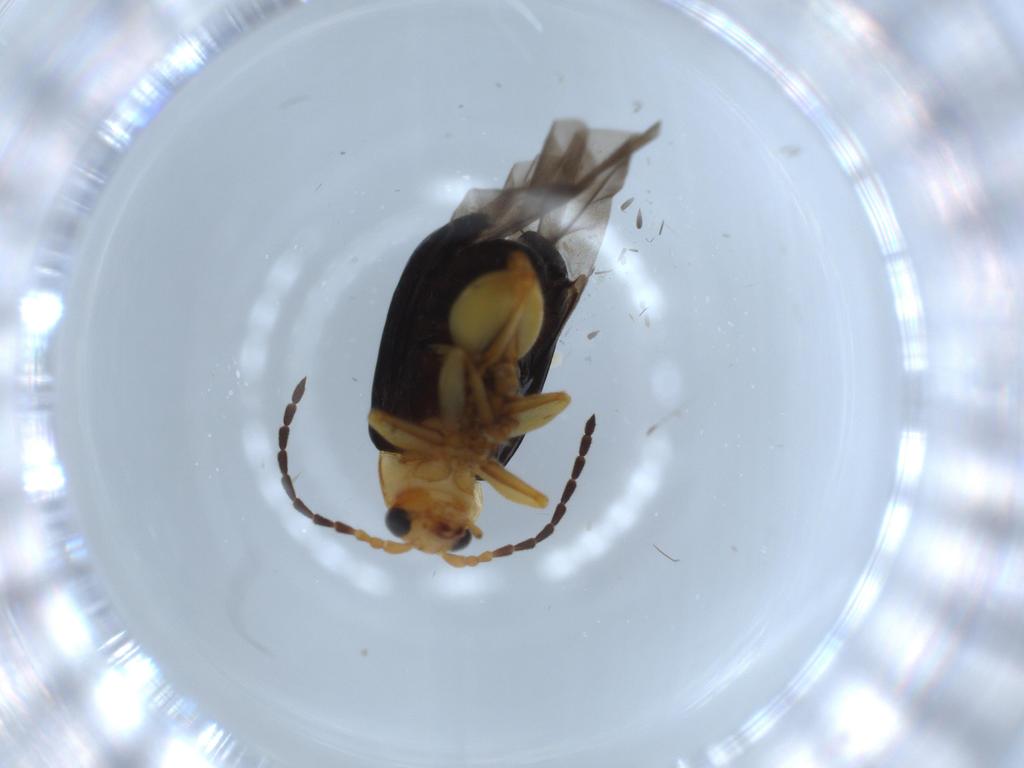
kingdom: Animalia
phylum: Arthropoda
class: Insecta
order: Coleoptera
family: Chrysomelidae
